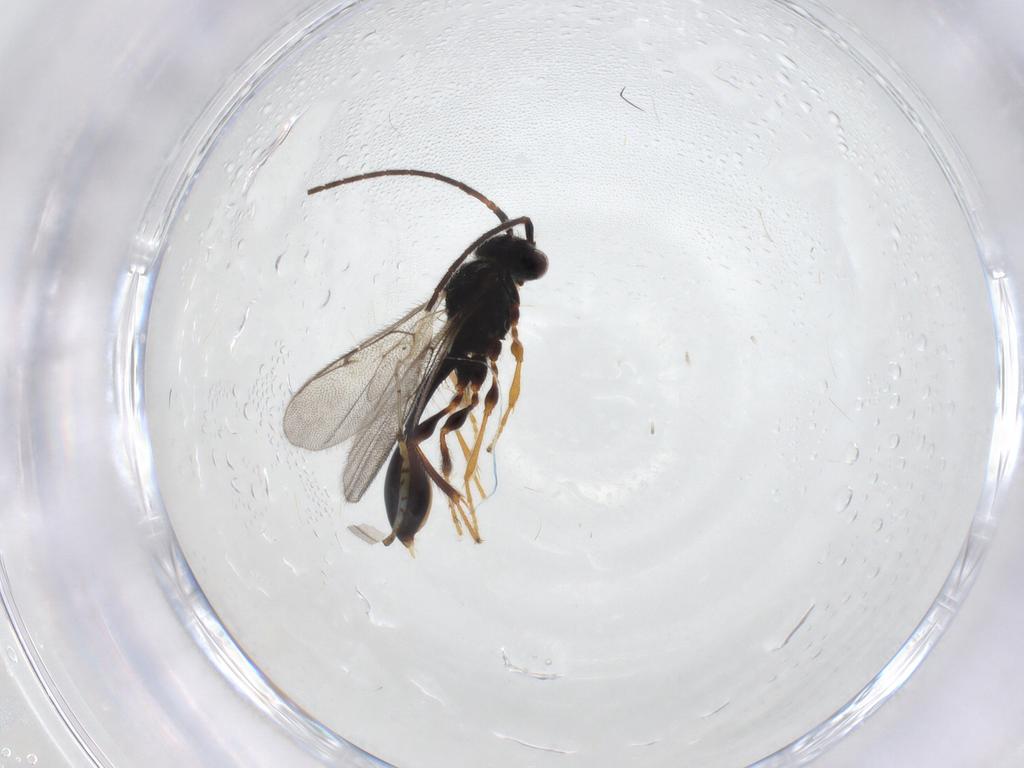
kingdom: Animalia
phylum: Arthropoda
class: Insecta
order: Hymenoptera
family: Diapriidae
